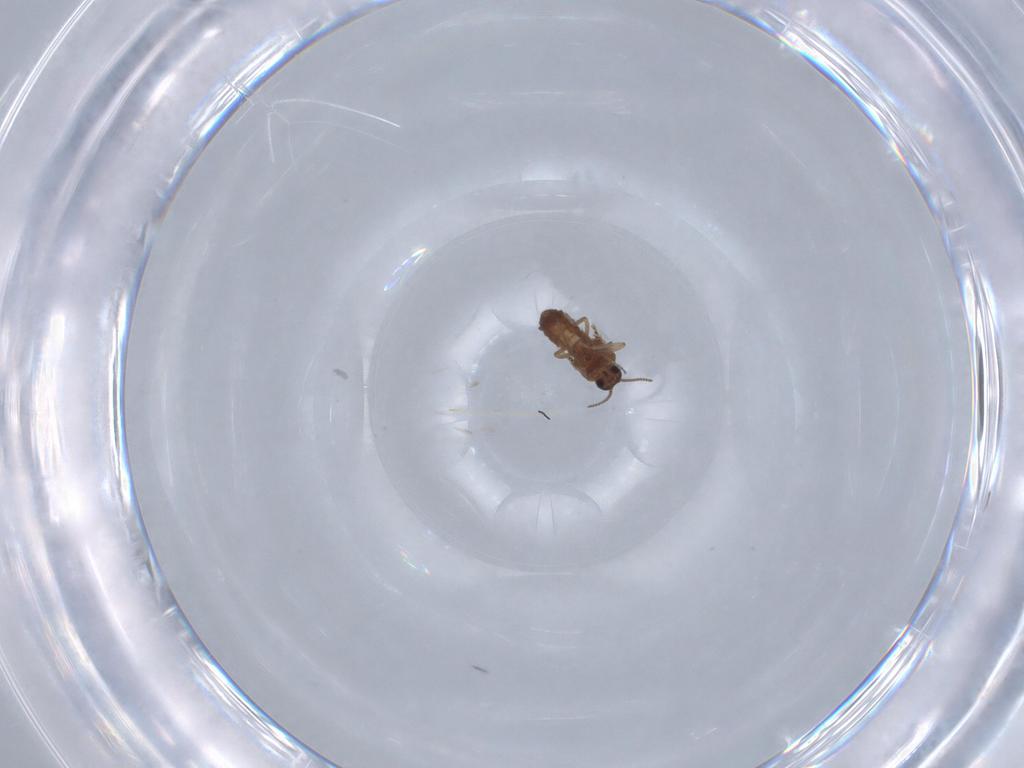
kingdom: Animalia
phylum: Arthropoda
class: Insecta
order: Diptera
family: Ceratopogonidae
